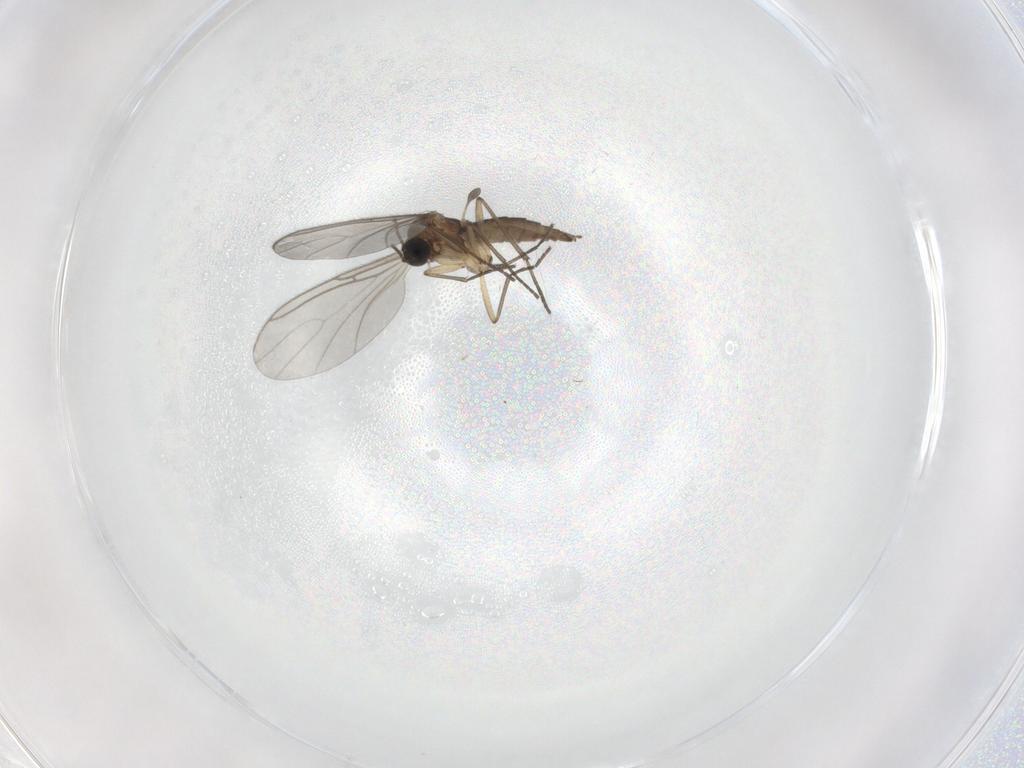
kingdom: Animalia
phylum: Arthropoda
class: Insecta
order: Diptera
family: Sciaridae
